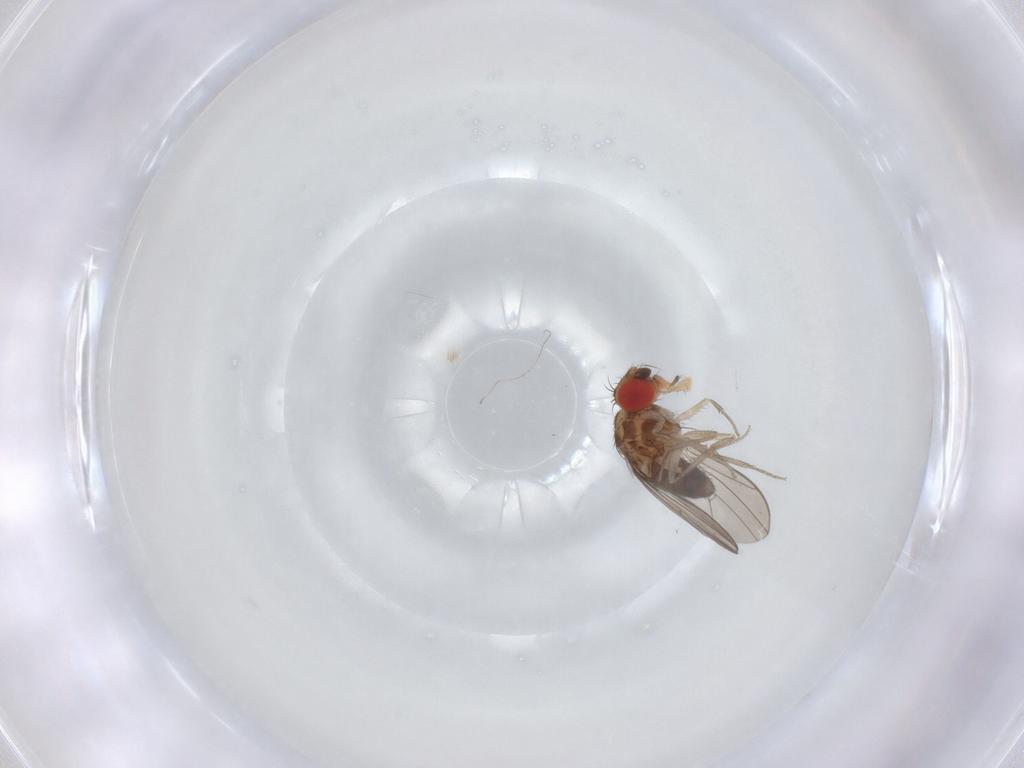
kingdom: Animalia
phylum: Arthropoda
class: Insecta
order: Diptera
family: Drosophilidae
